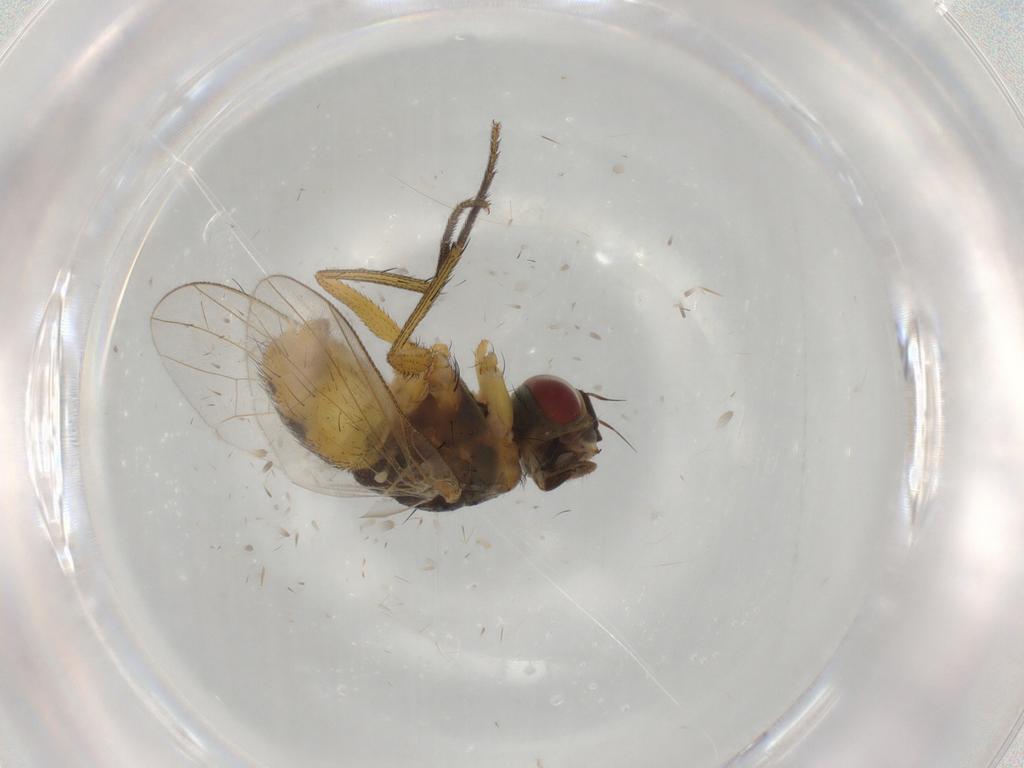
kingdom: Animalia
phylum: Arthropoda
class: Insecta
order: Diptera
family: Muscidae
